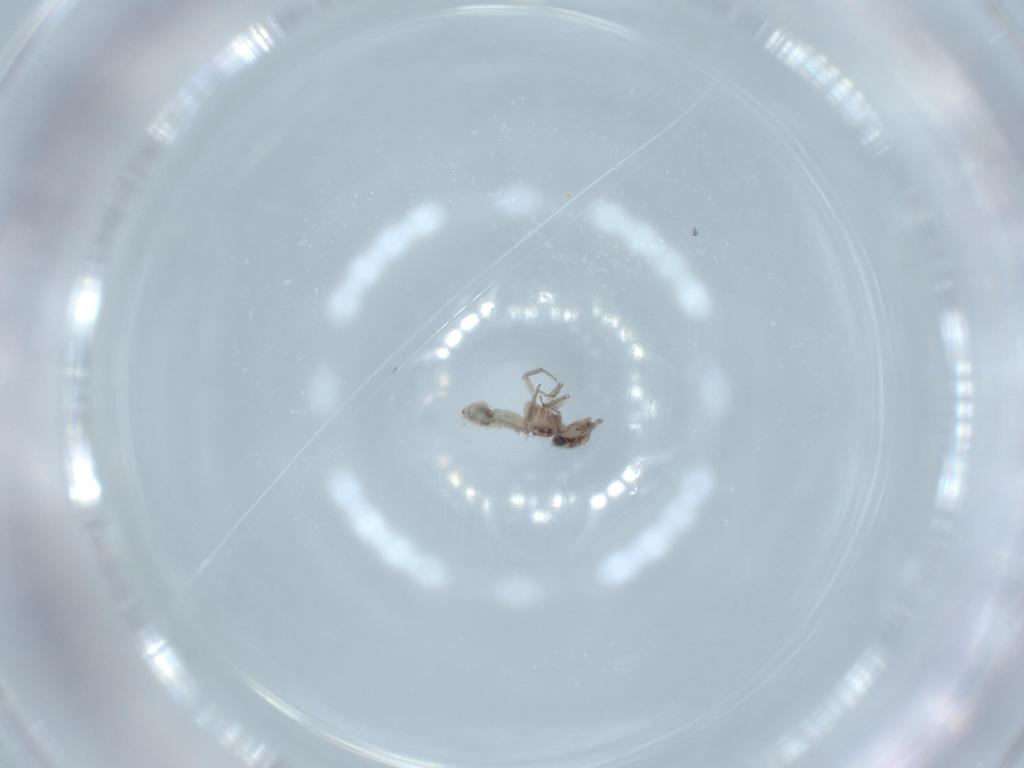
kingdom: Animalia
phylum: Arthropoda
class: Insecta
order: Psocodea
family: Lepidopsocidae
